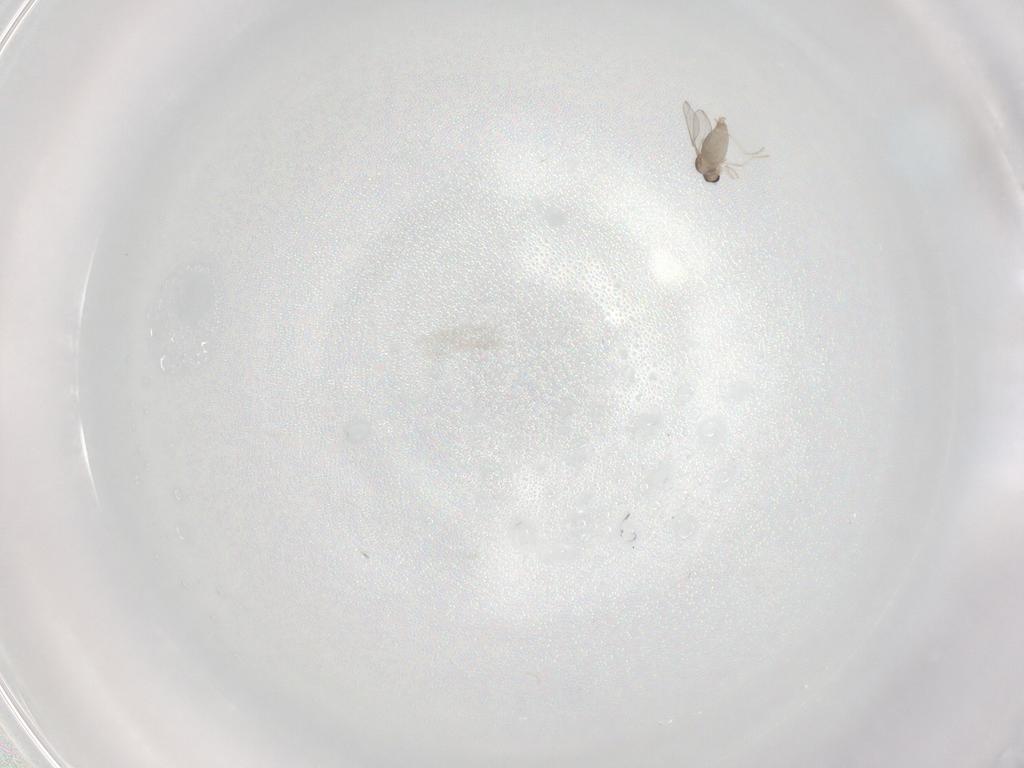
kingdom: Animalia
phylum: Arthropoda
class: Insecta
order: Diptera
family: Cecidomyiidae
